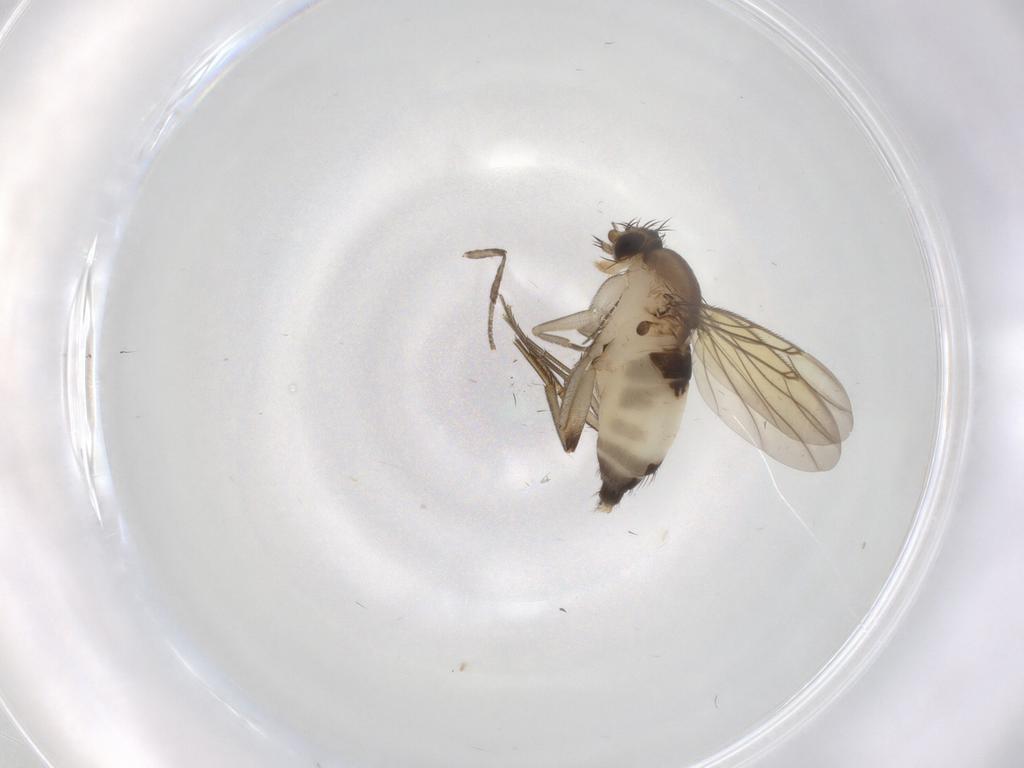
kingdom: Animalia
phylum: Arthropoda
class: Insecta
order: Diptera
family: Phoridae
